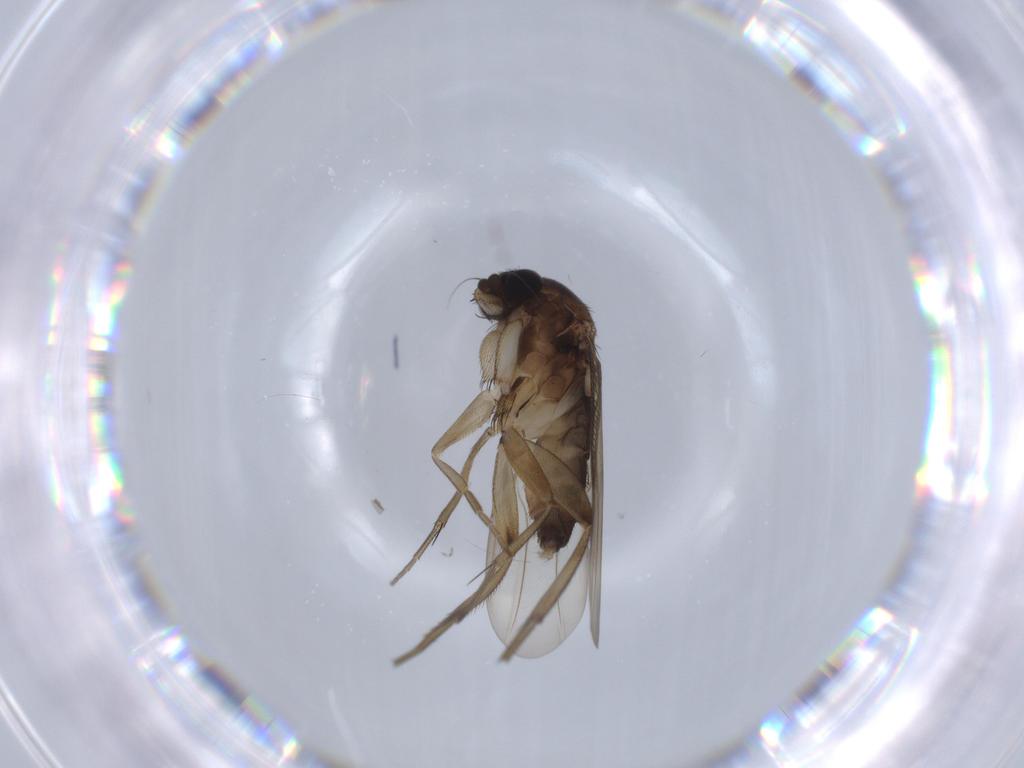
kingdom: Animalia
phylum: Arthropoda
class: Insecta
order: Diptera
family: Phoridae
